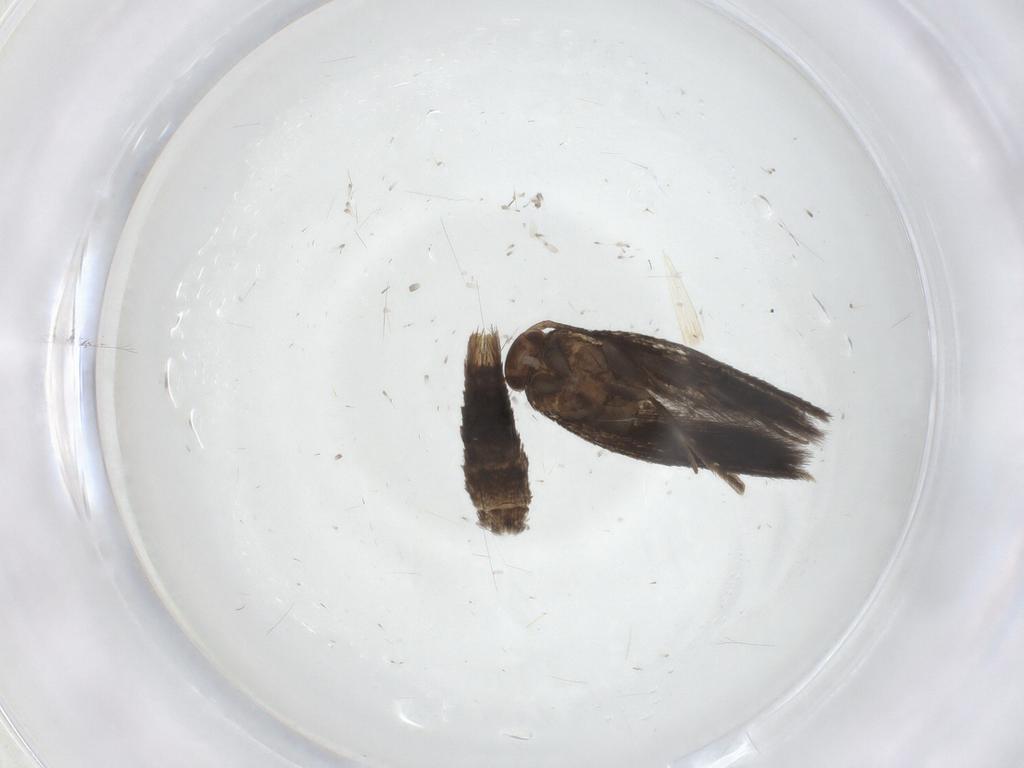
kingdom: Animalia
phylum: Arthropoda
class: Insecta
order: Lepidoptera
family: Elachistidae
